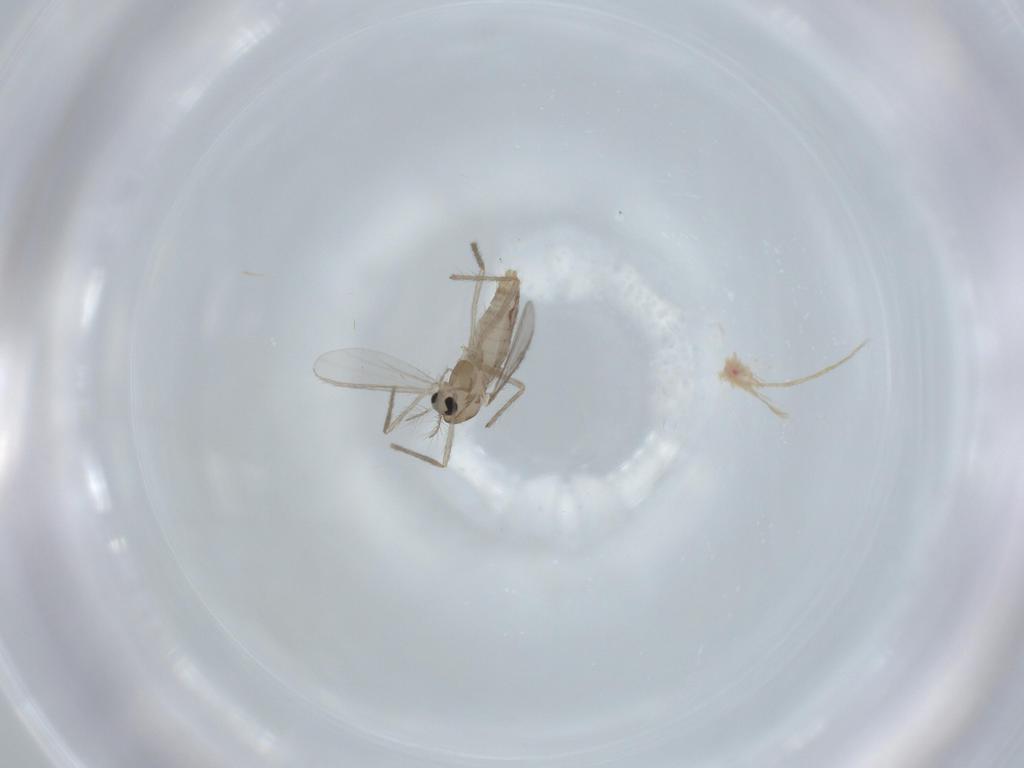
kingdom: Animalia
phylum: Arthropoda
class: Insecta
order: Diptera
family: Chironomidae
